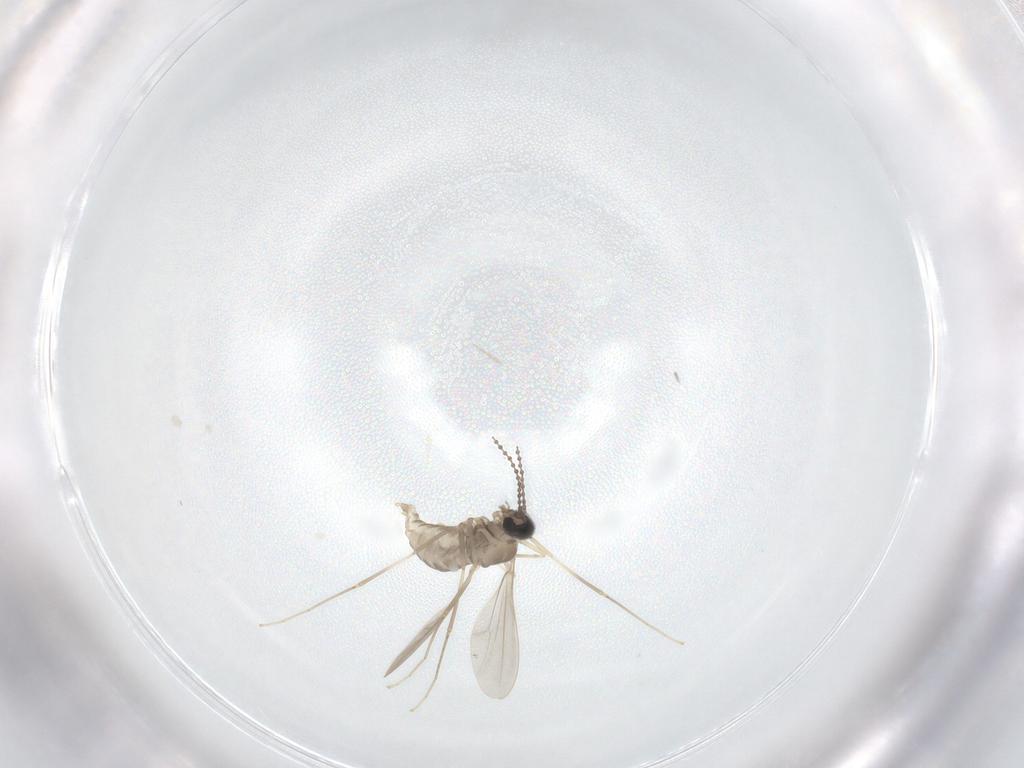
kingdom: Animalia
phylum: Arthropoda
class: Insecta
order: Diptera
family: Cecidomyiidae
